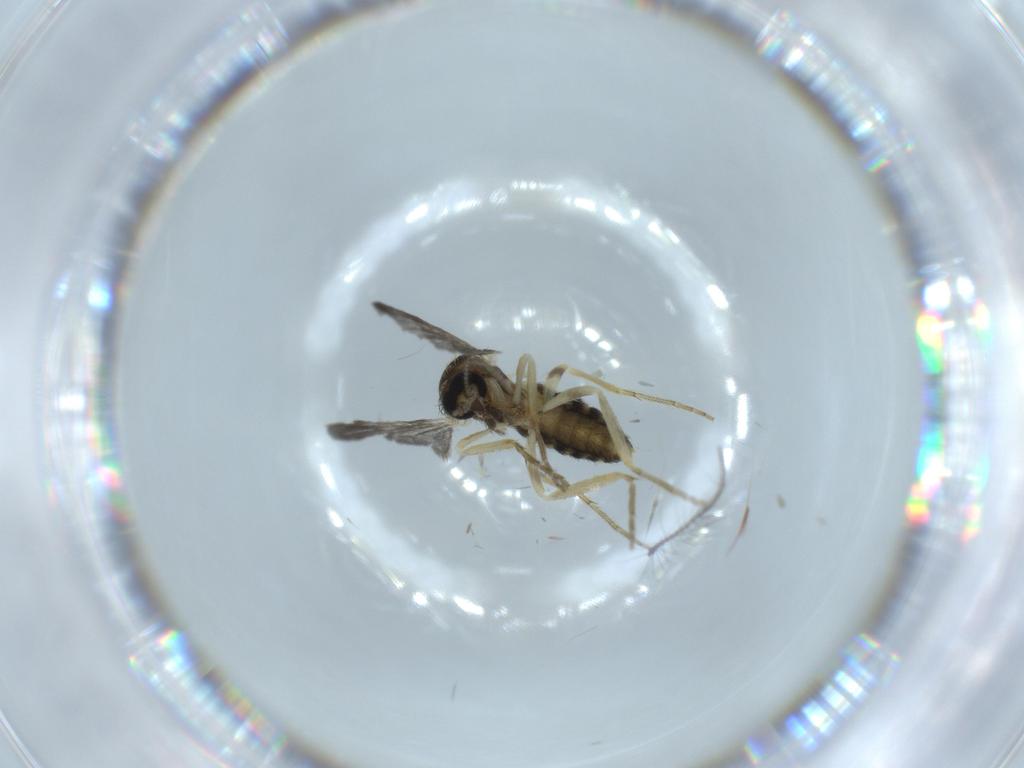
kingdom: Animalia
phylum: Arthropoda
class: Insecta
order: Diptera
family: Ceratopogonidae
